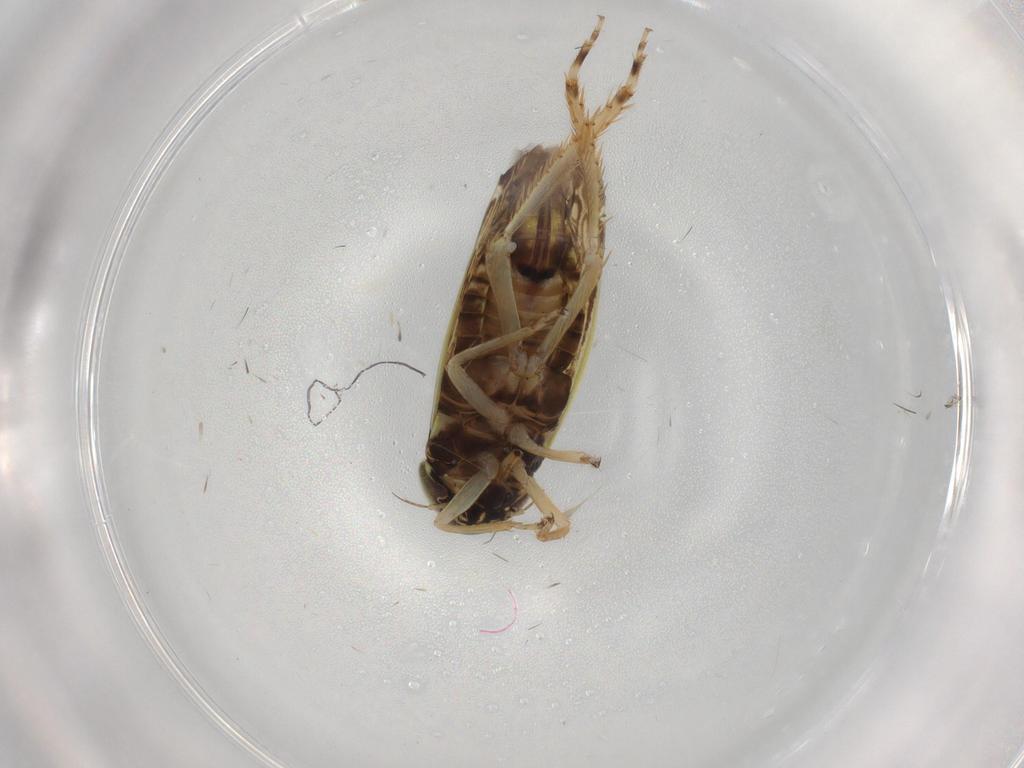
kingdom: Animalia
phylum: Arthropoda
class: Insecta
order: Hemiptera
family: Cicadellidae
